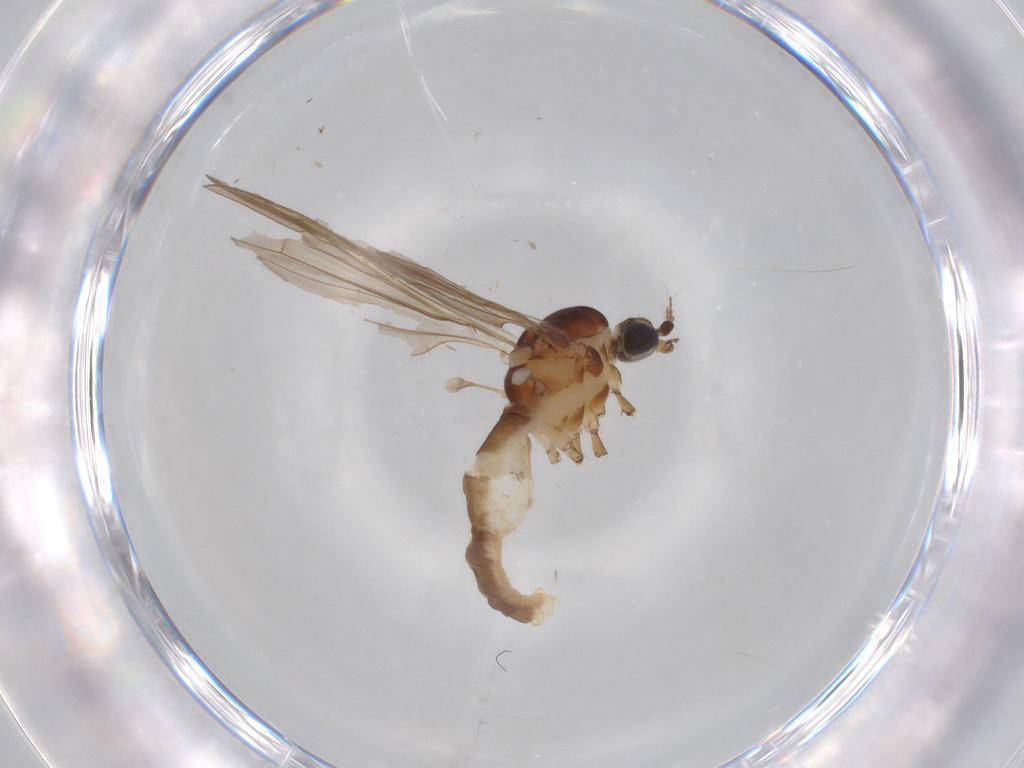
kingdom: Animalia
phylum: Arthropoda
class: Insecta
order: Diptera
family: Limoniidae
